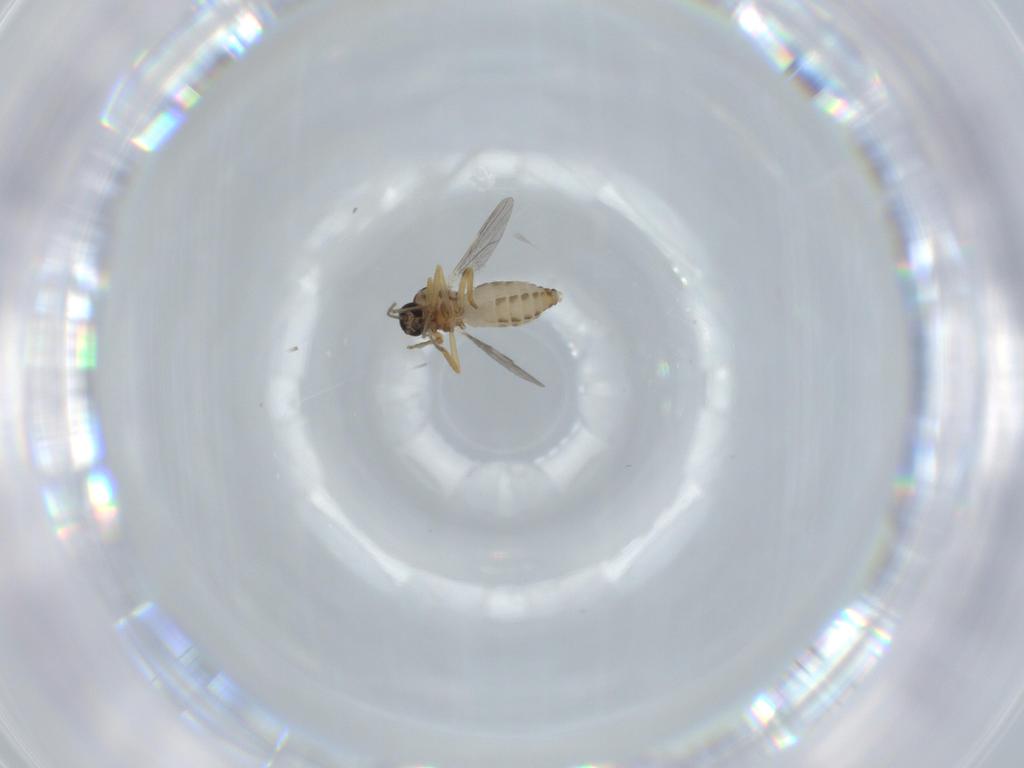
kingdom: Animalia
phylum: Arthropoda
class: Insecta
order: Diptera
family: Ceratopogonidae
